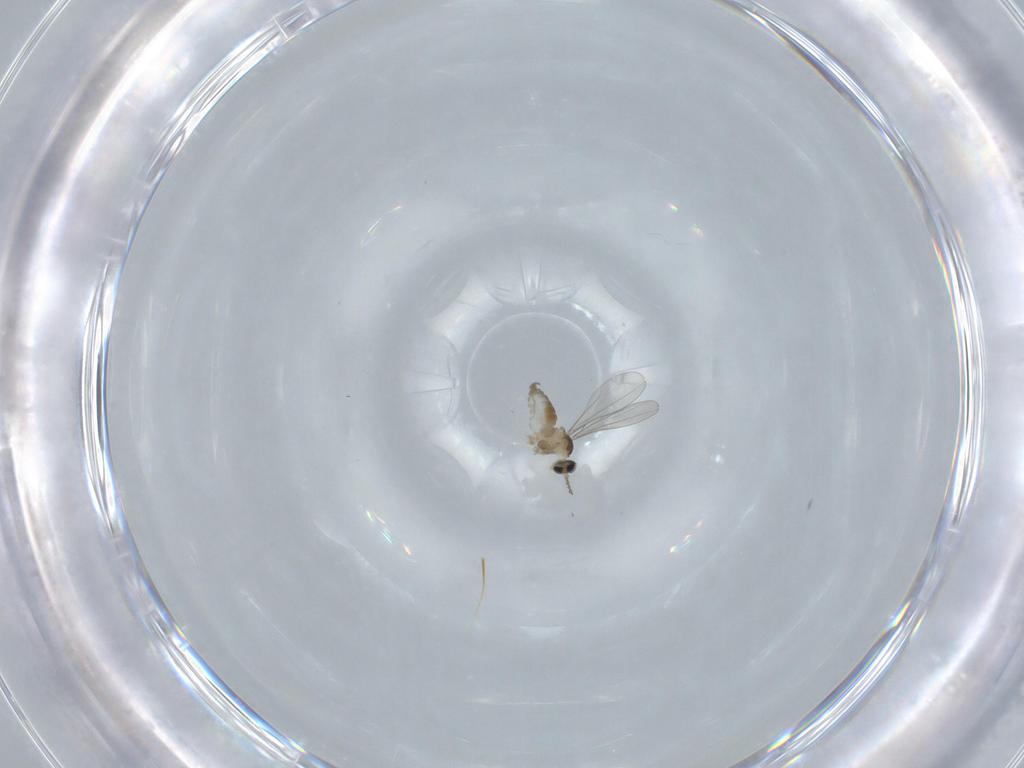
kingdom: Animalia
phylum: Arthropoda
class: Insecta
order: Diptera
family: Cecidomyiidae
